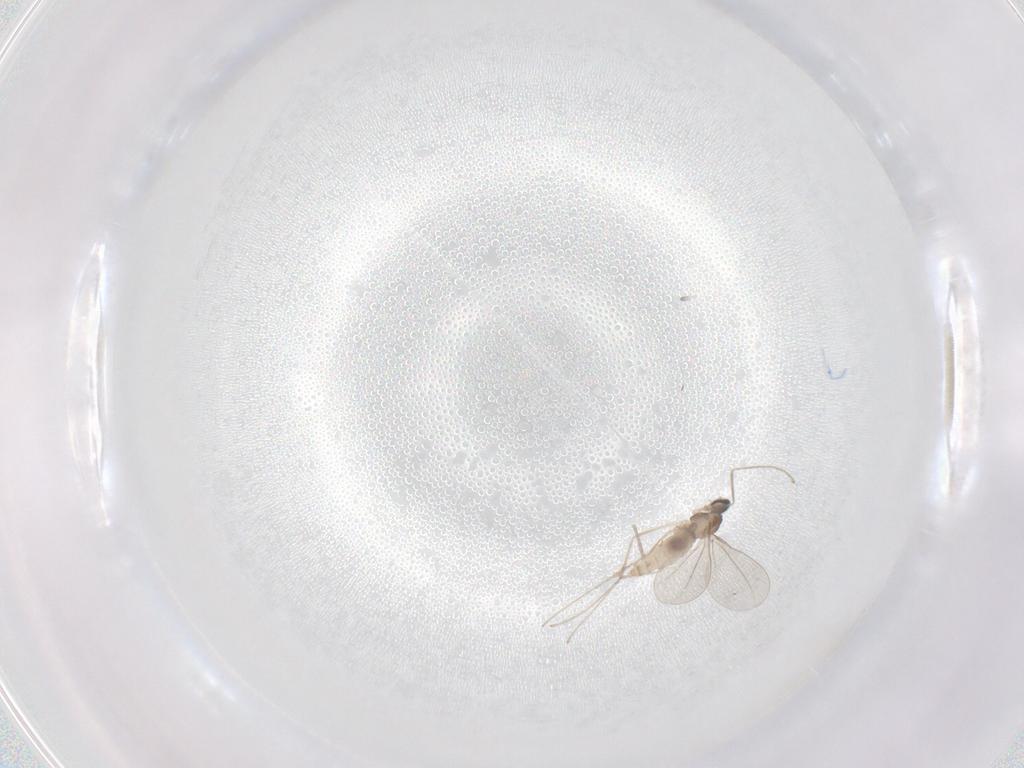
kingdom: Animalia
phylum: Arthropoda
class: Insecta
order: Diptera
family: Cecidomyiidae
